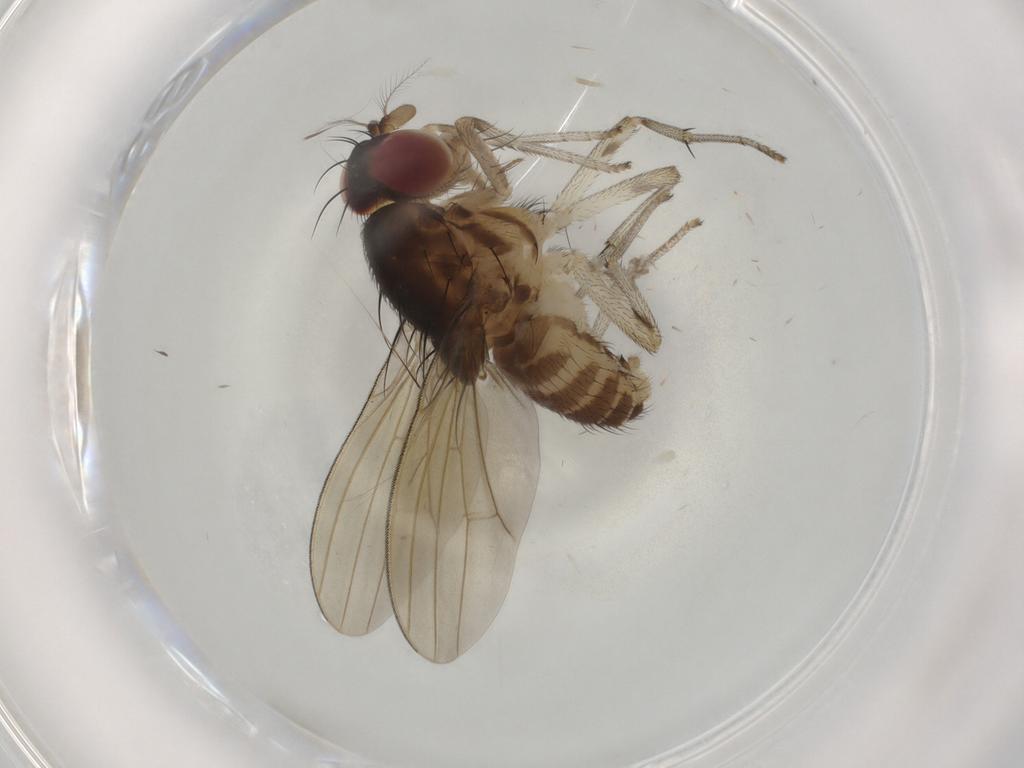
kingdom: Animalia
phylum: Arthropoda
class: Insecta
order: Diptera
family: Lauxaniidae
